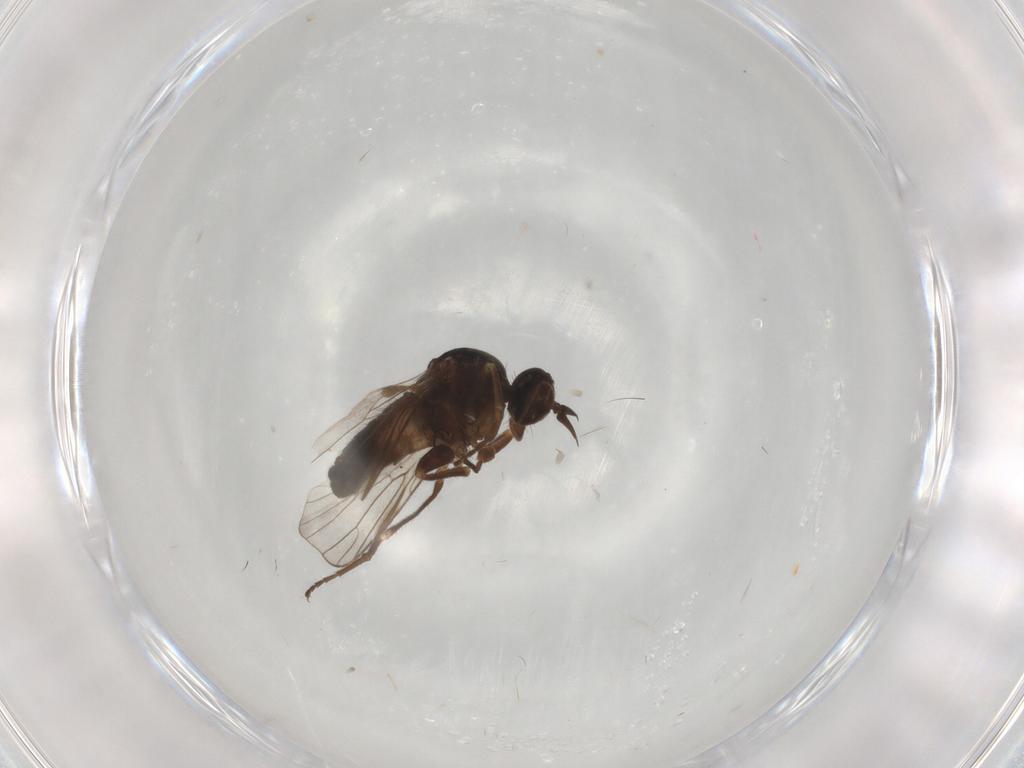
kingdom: Animalia
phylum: Arthropoda
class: Insecta
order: Diptera
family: Empididae
